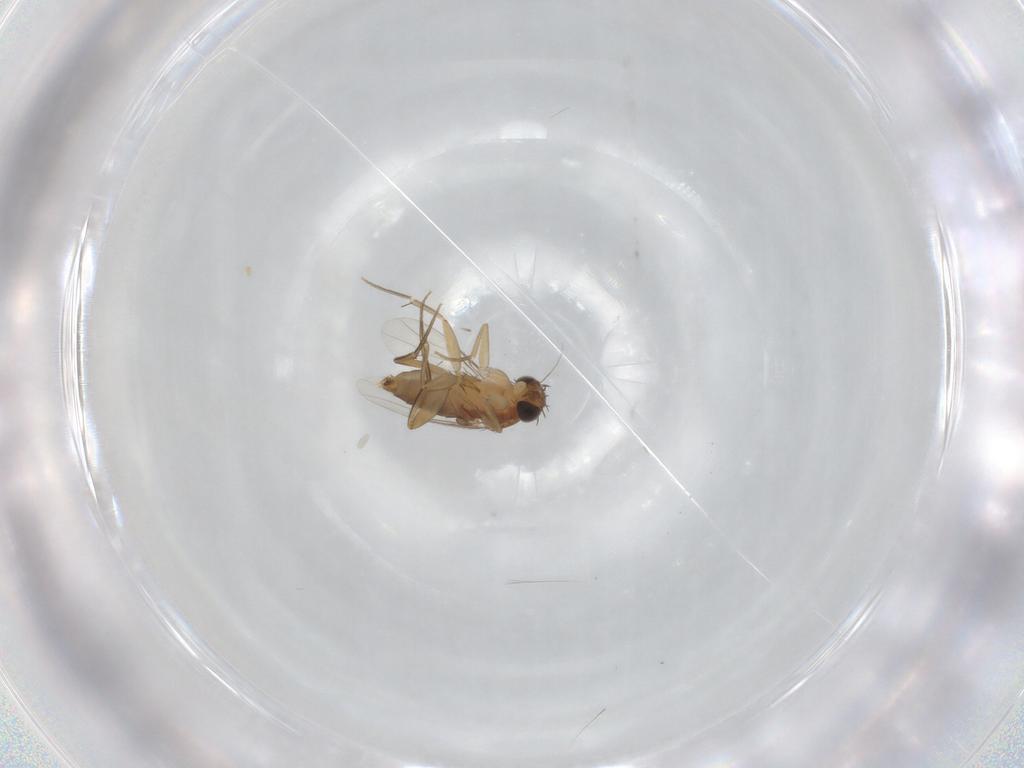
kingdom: Animalia
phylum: Arthropoda
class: Insecta
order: Diptera
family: Phoridae
